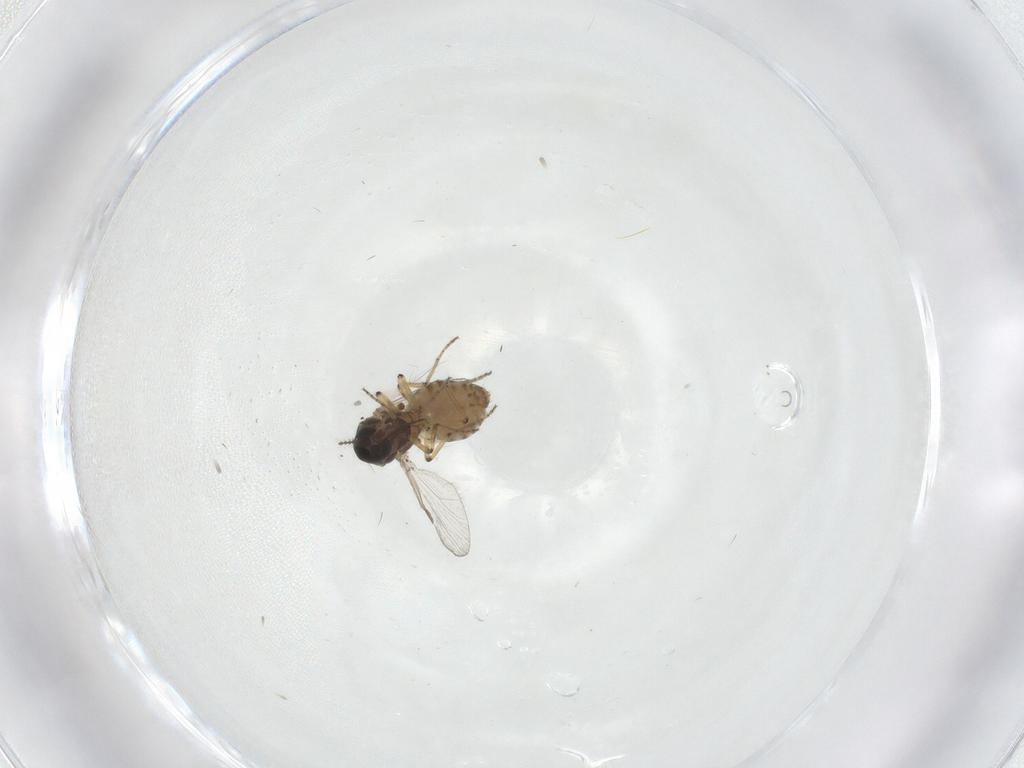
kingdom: Animalia
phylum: Arthropoda
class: Insecta
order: Diptera
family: Ceratopogonidae
